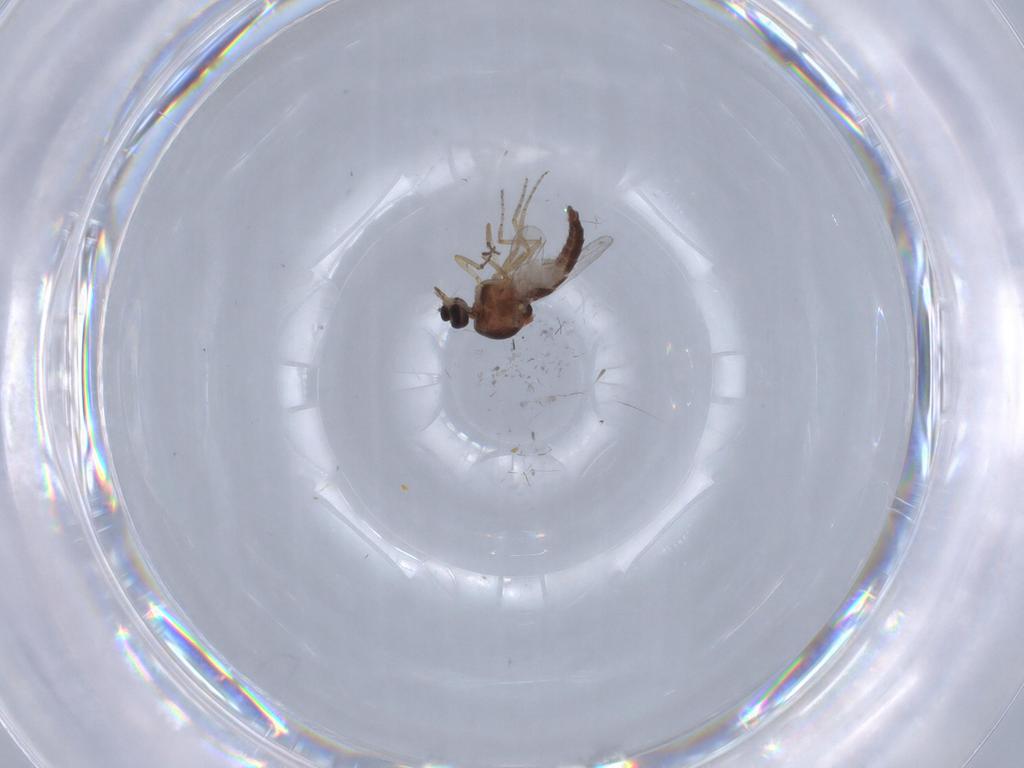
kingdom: Animalia
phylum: Arthropoda
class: Insecta
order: Diptera
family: Ceratopogonidae
